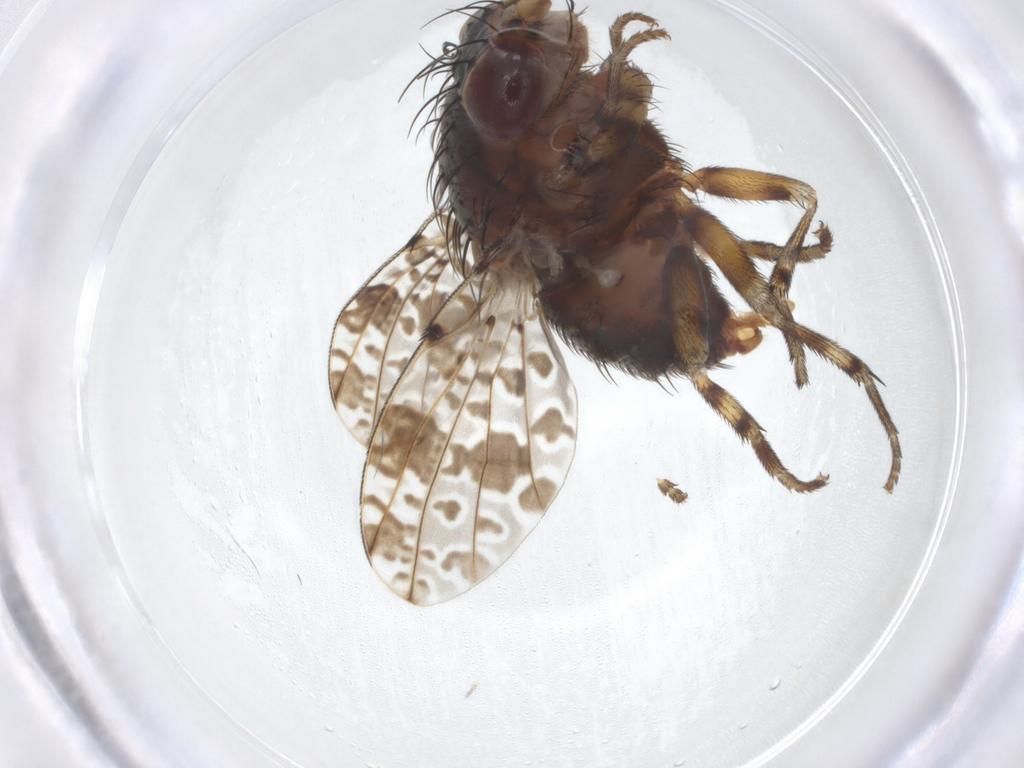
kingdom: Animalia
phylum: Arthropoda
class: Insecta
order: Diptera
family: Odiniidae
